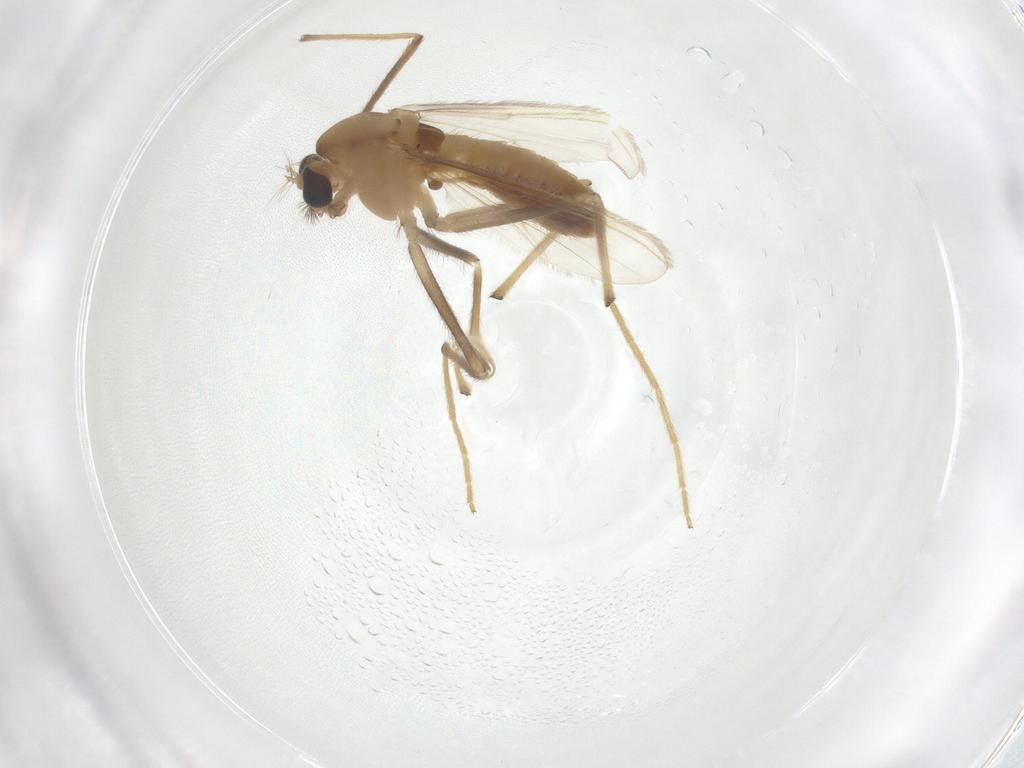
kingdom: Animalia
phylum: Arthropoda
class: Insecta
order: Diptera
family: Chironomidae
